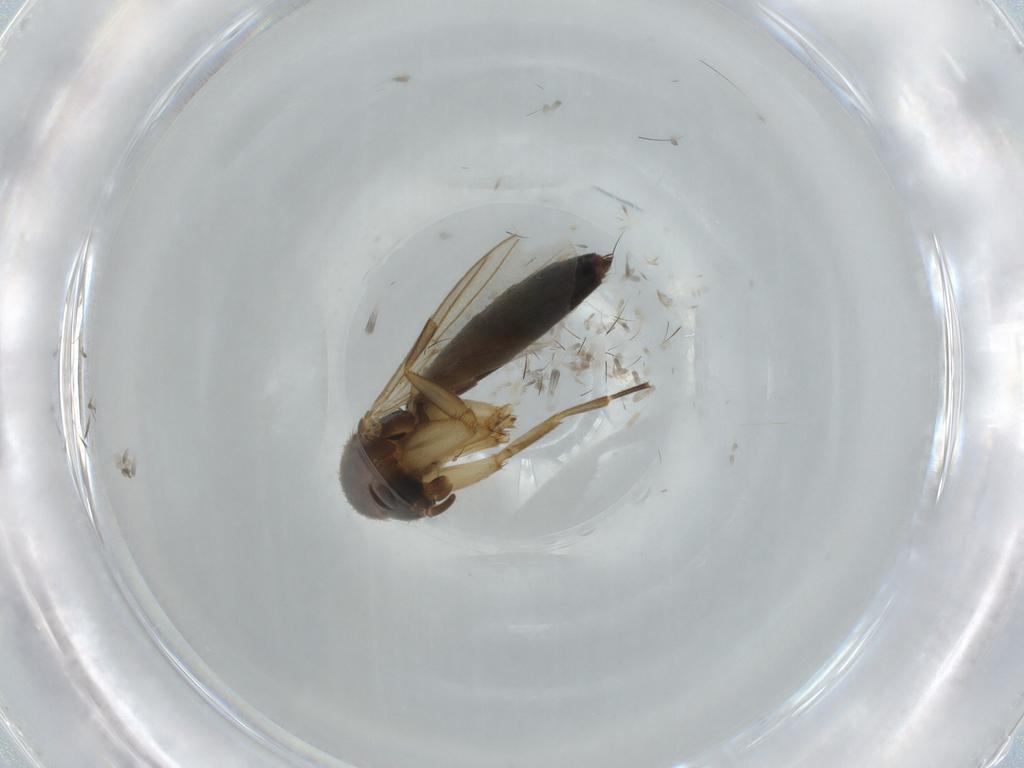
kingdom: Animalia
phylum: Arthropoda
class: Insecta
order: Diptera
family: Mycetophilidae
